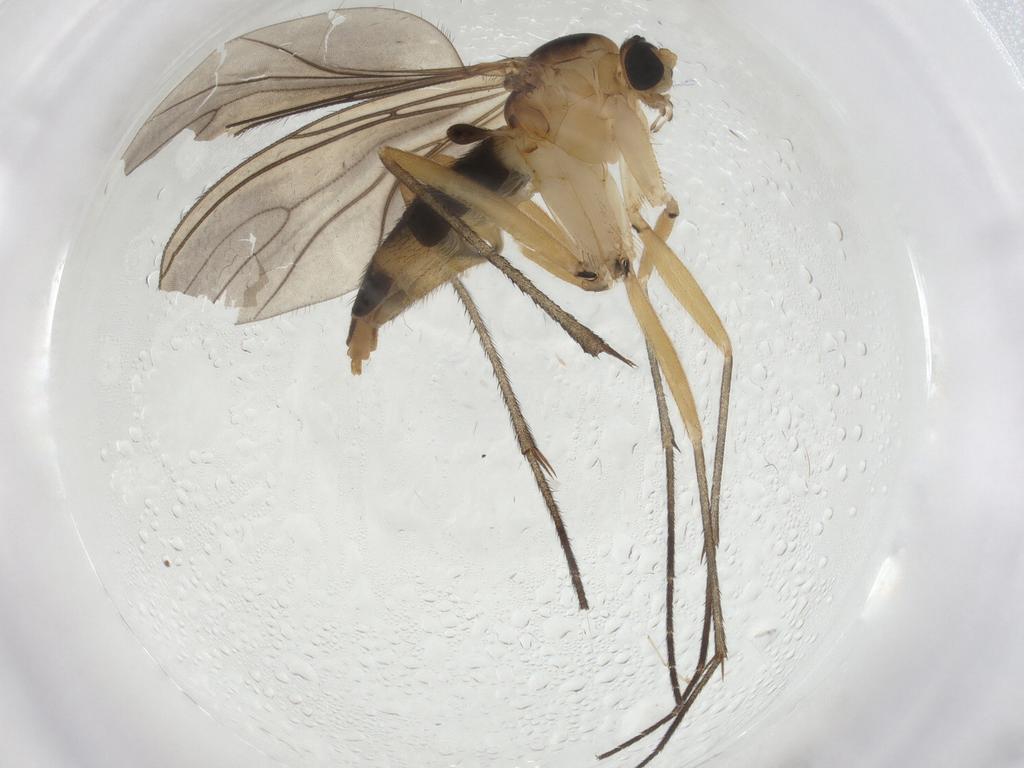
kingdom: Animalia
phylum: Arthropoda
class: Insecta
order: Diptera
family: Sciaridae
